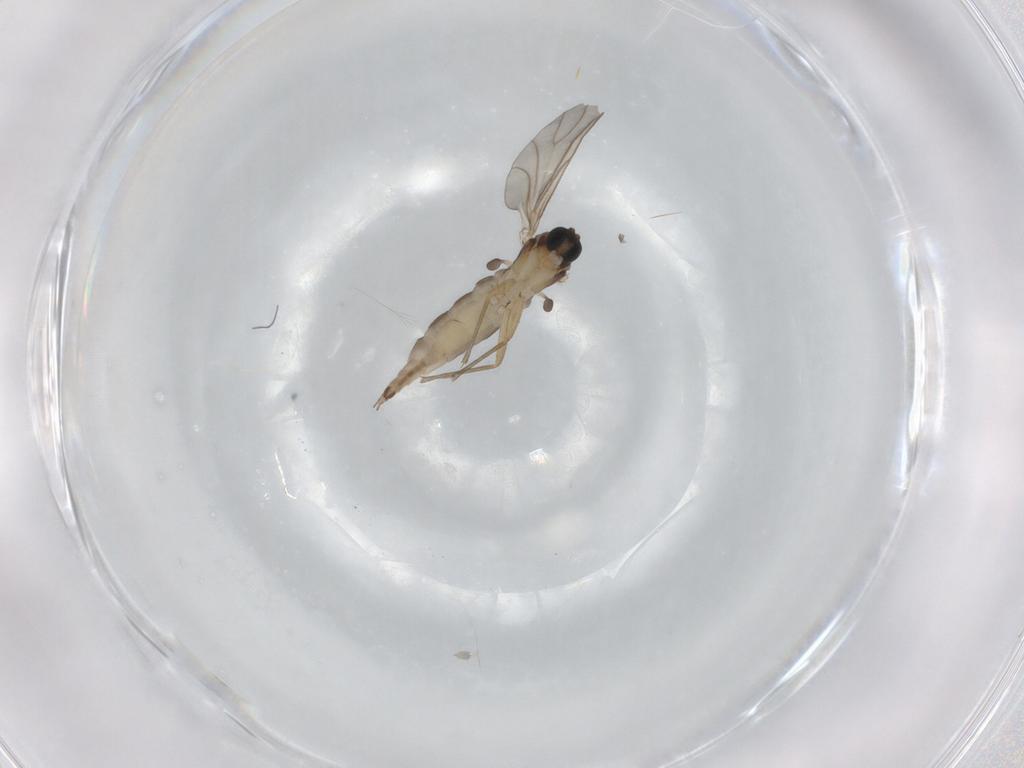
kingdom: Animalia
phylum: Arthropoda
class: Insecta
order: Diptera
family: Sciaridae
